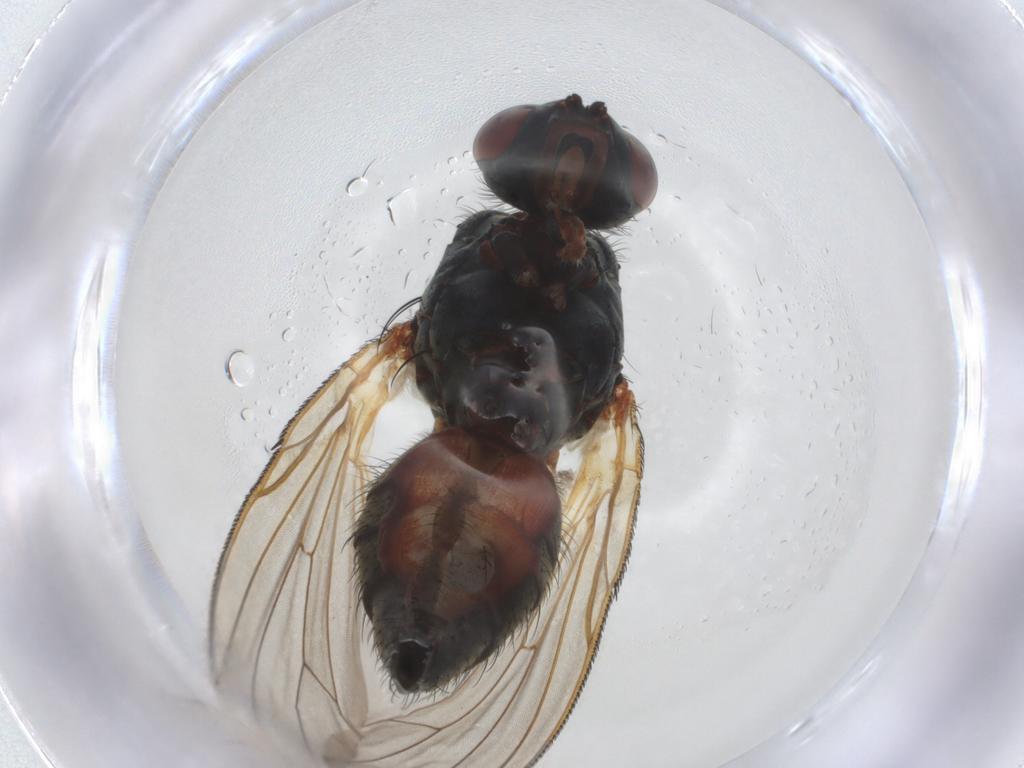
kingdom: Animalia
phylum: Arthropoda
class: Insecta
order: Diptera
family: Anthomyiidae
